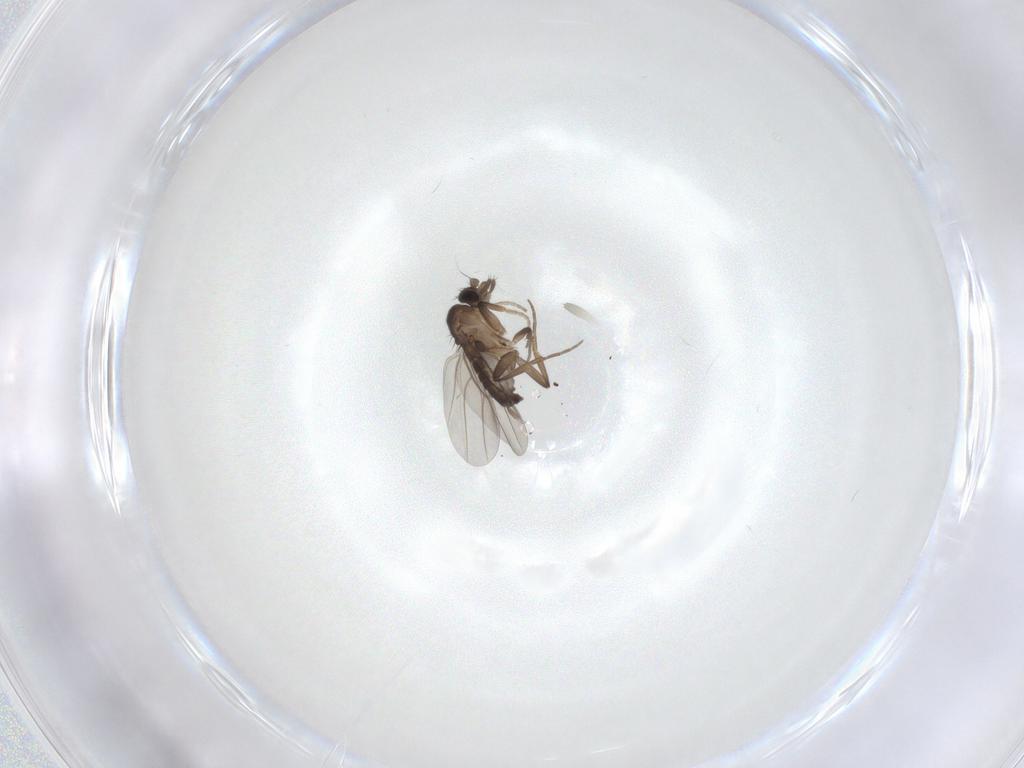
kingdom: Animalia
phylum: Arthropoda
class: Insecta
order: Diptera
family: Phoridae
